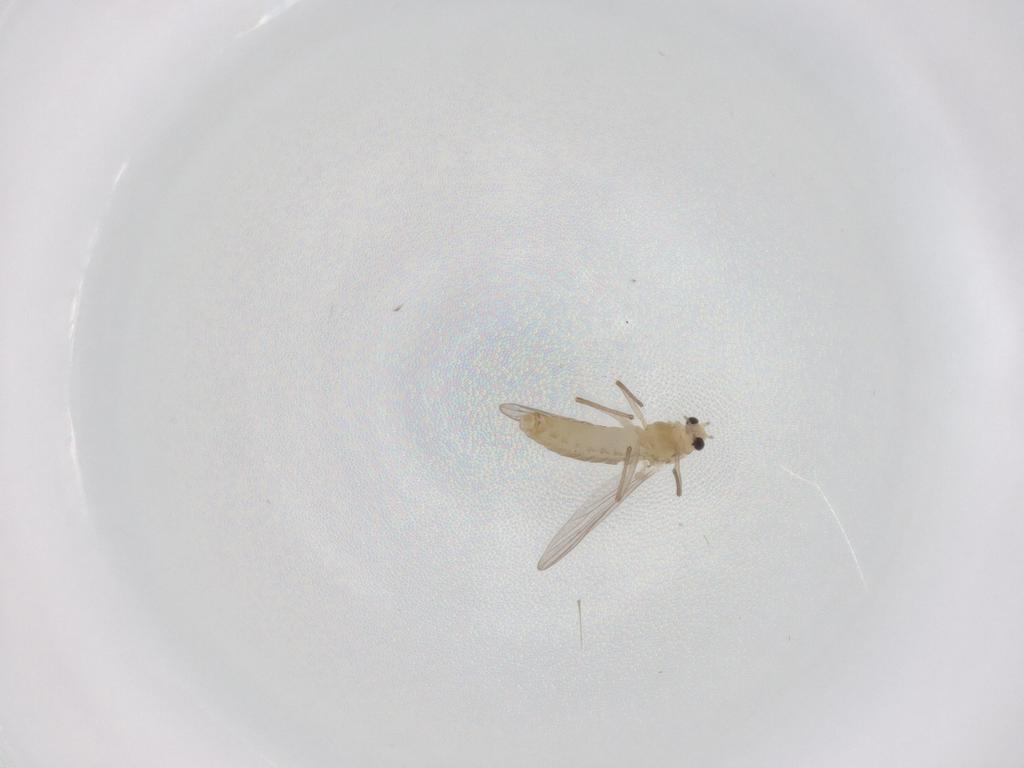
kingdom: Animalia
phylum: Arthropoda
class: Insecta
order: Diptera
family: Chironomidae
